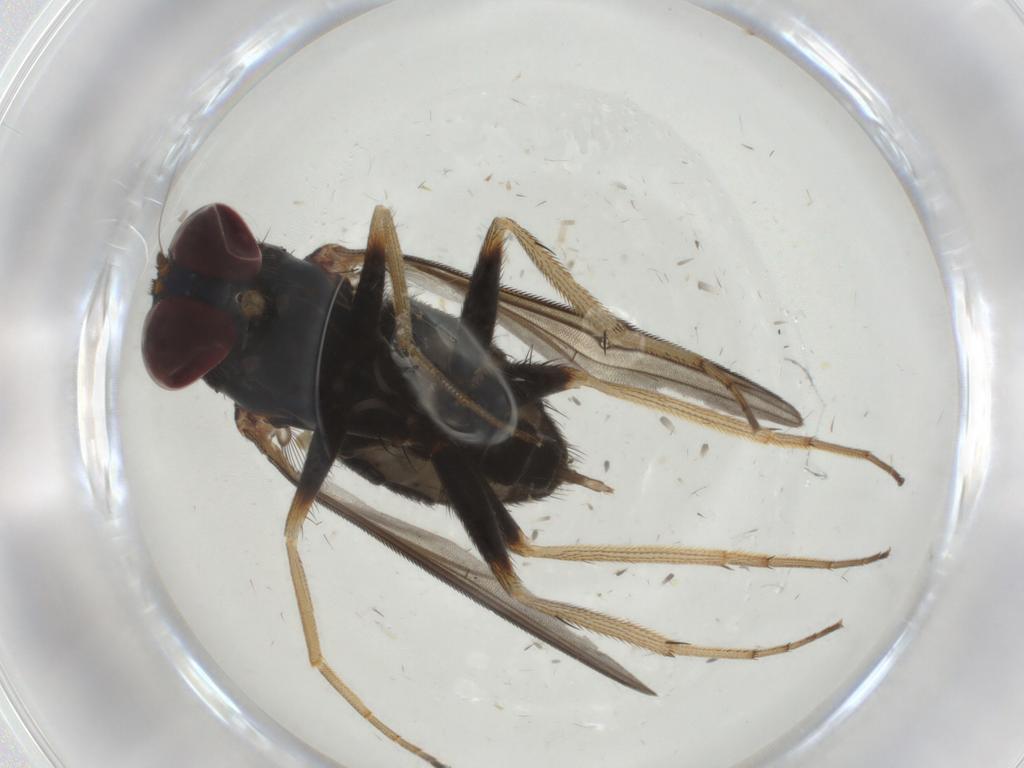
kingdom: Animalia
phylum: Arthropoda
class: Insecta
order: Diptera
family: Dolichopodidae
